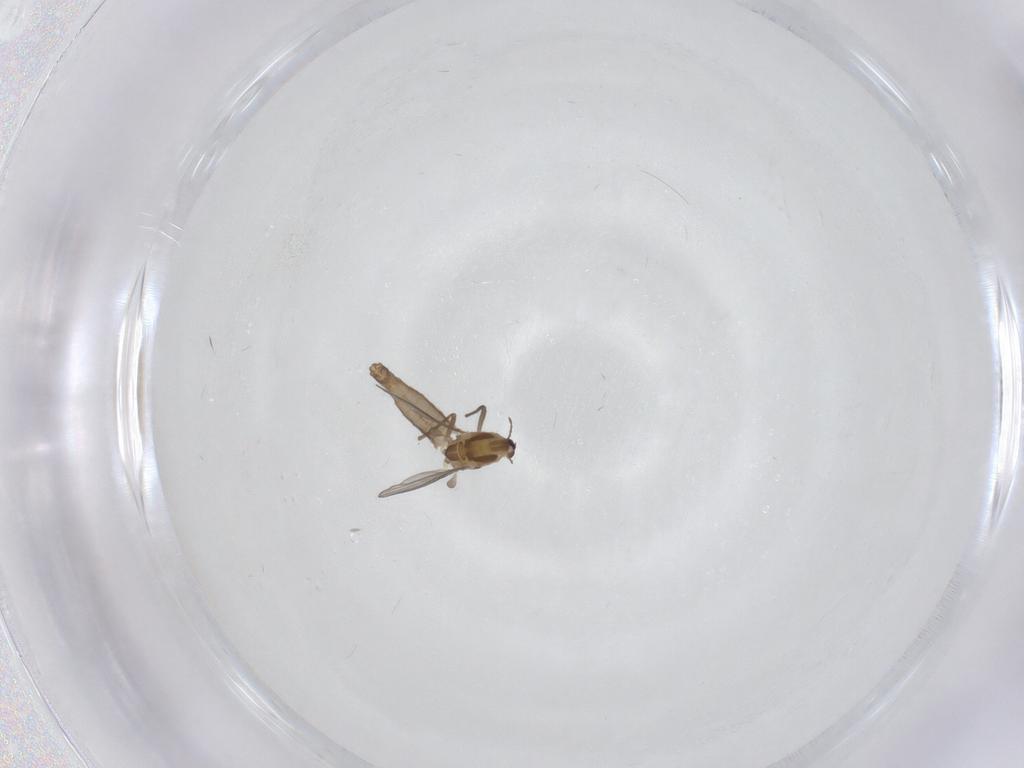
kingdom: Animalia
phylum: Arthropoda
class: Insecta
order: Diptera
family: Chironomidae
